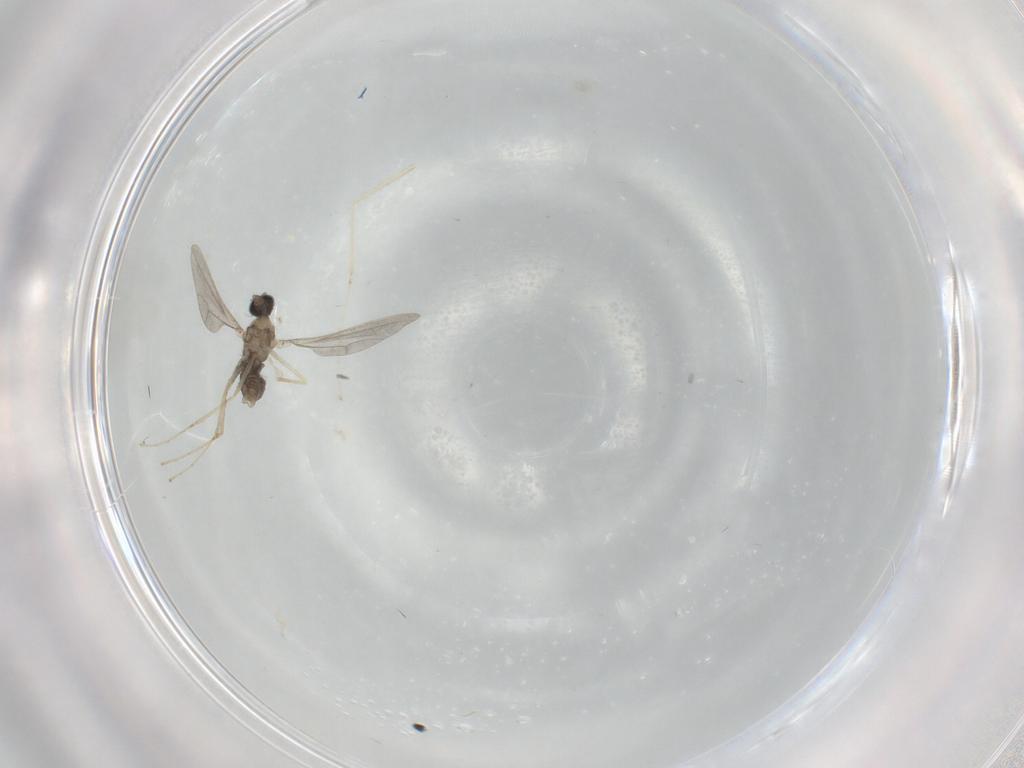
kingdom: Animalia
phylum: Arthropoda
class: Insecta
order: Diptera
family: Cecidomyiidae
